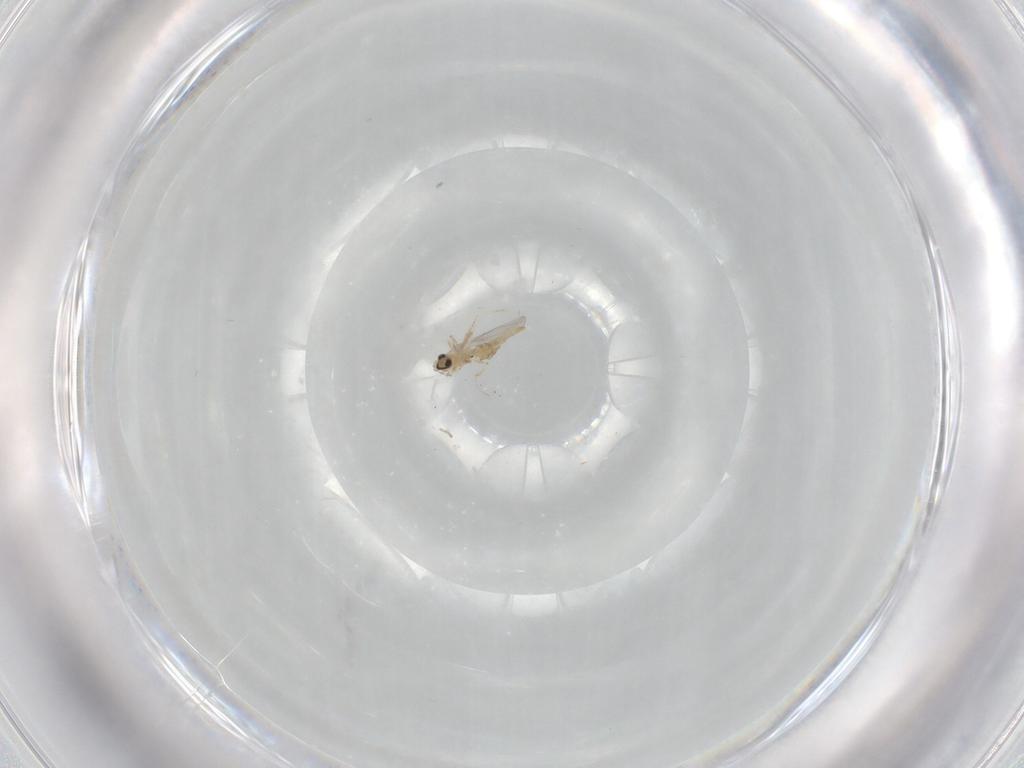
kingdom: Animalia
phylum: Arthropoda
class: Insecta
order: Diptera
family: Cecidomyiidae
